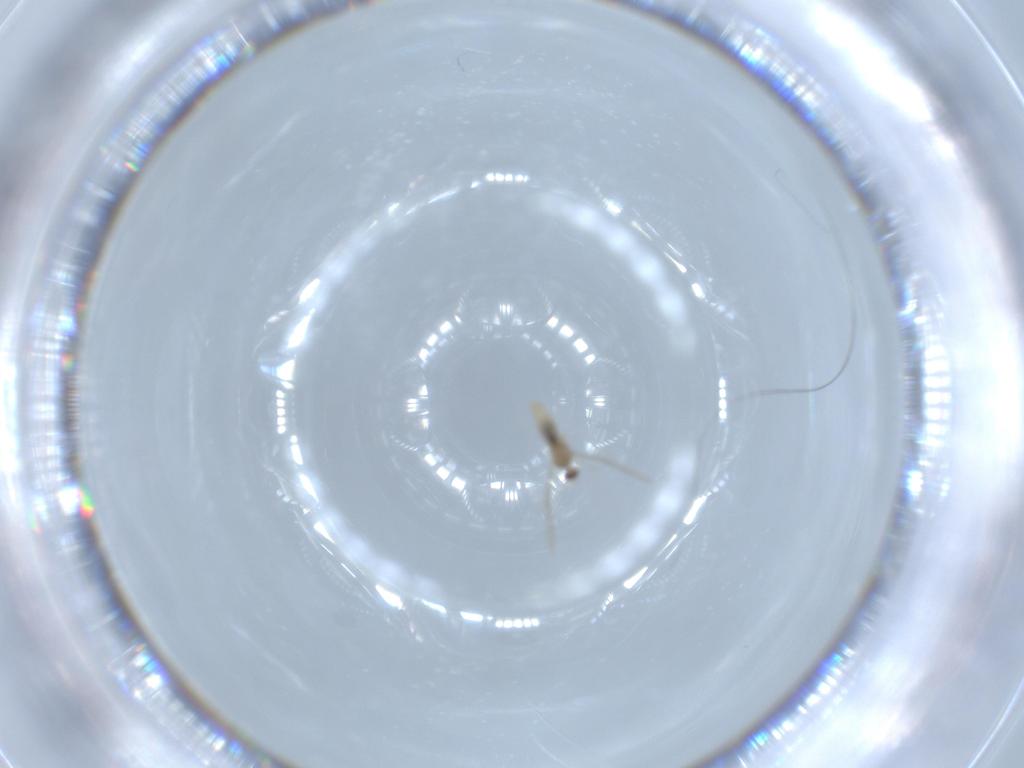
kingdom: Animalia
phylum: Arthropoda
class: Insecta
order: Diptera
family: Cecidomyiidae
